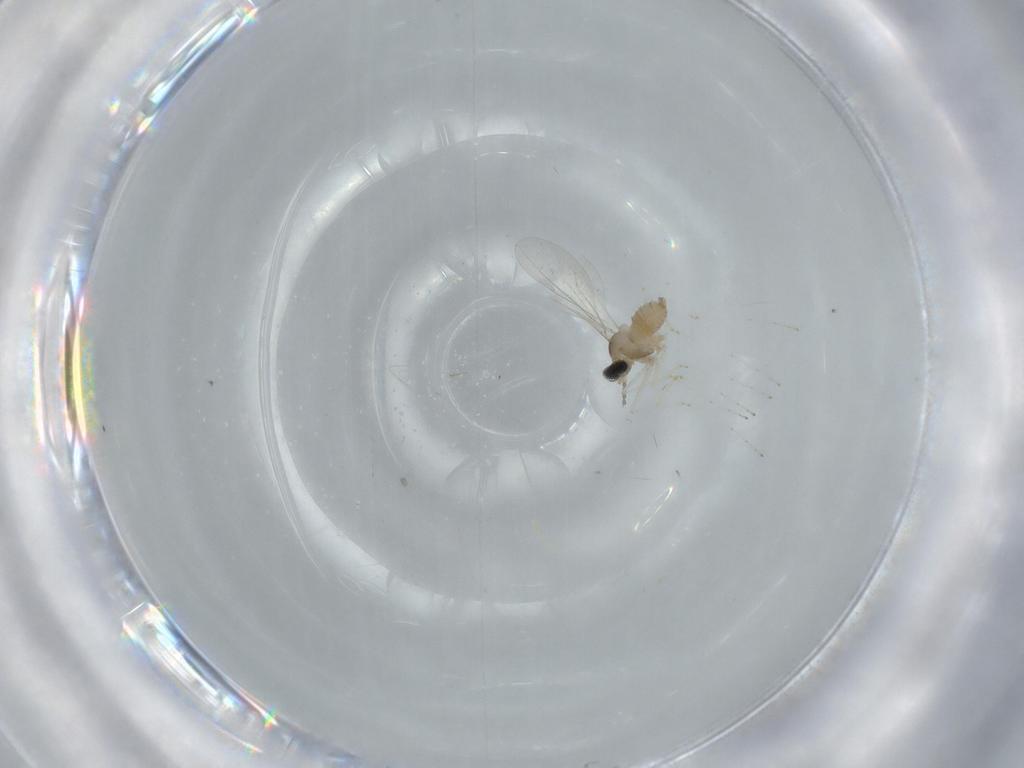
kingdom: Animalia
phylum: Arthropoda
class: Insecta
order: Diptera
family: Cecidomyiidae
